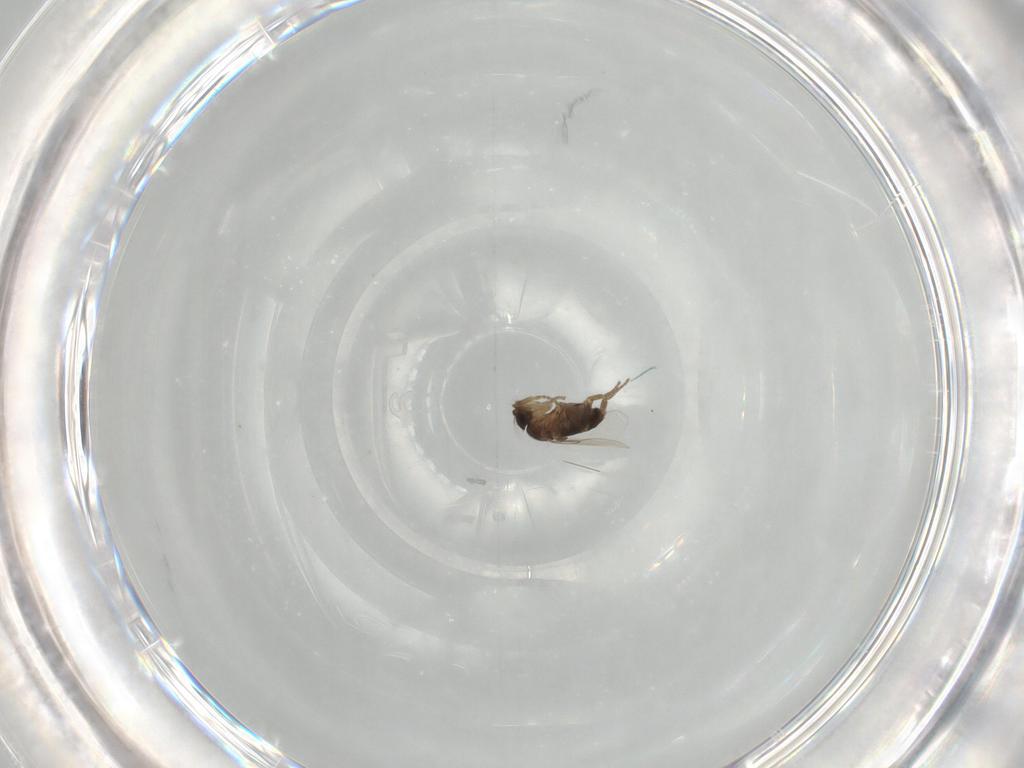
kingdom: Animalia
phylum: Arthropoda
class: Insecta
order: Diptera
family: Phoridae
